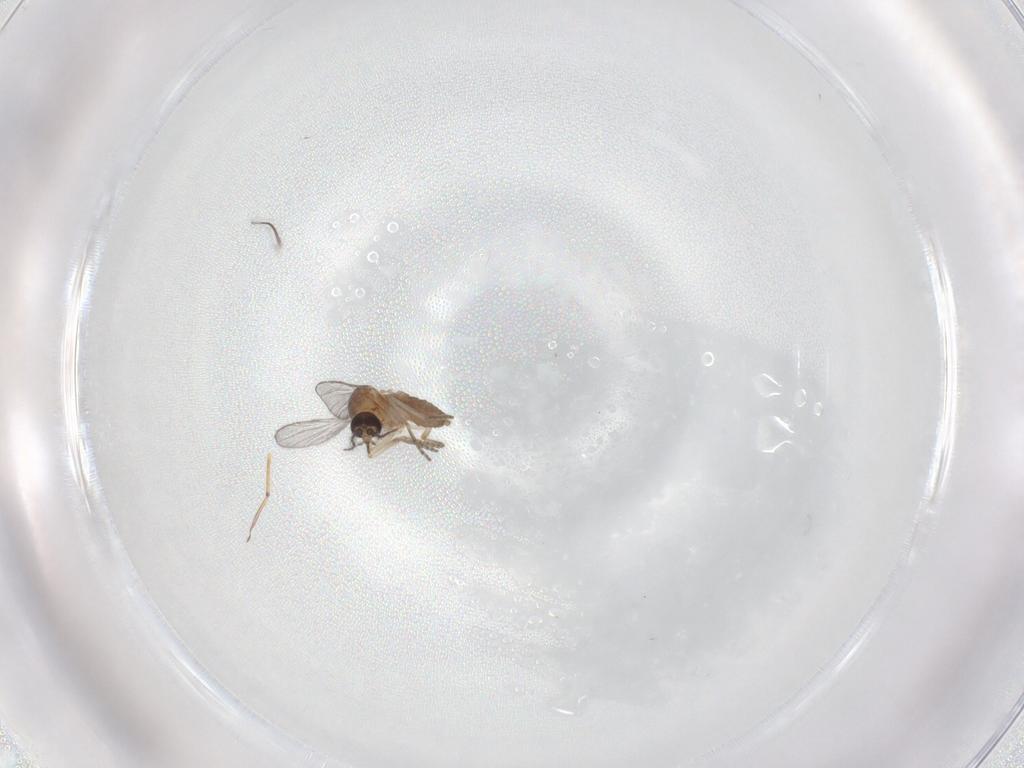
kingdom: Animalia
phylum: Arthropoda
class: Insecta
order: Diptera
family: Chironomidae
